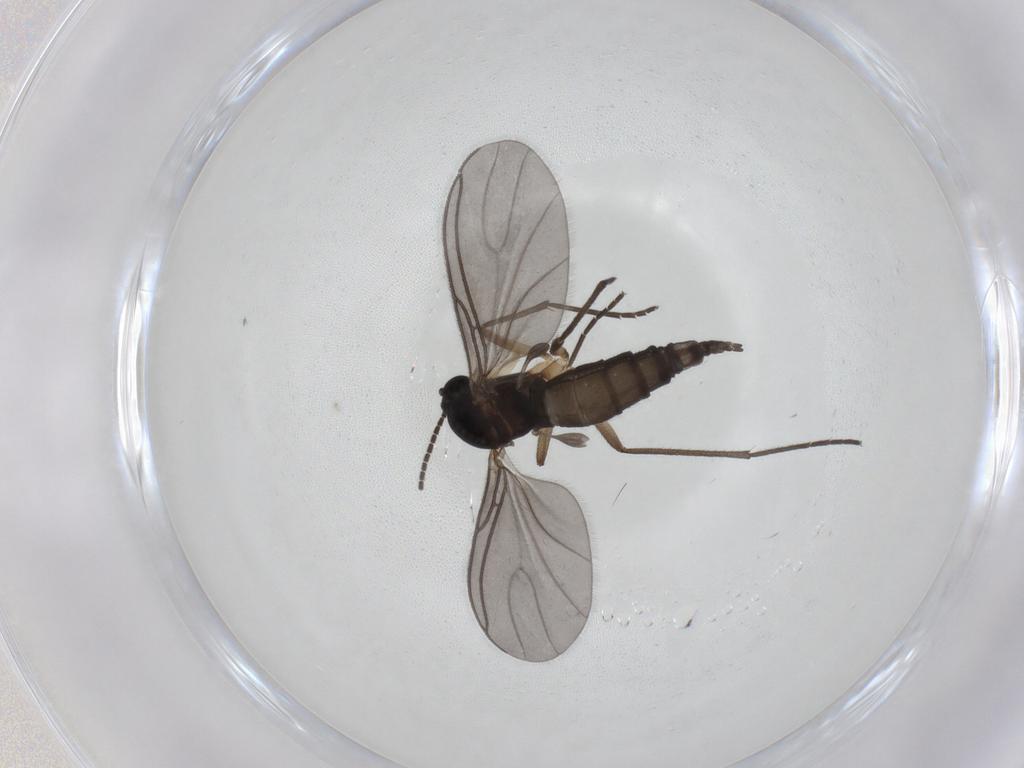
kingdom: Animalia
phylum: Arthropoda
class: Insecta
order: Diptera
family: Sciaridae
